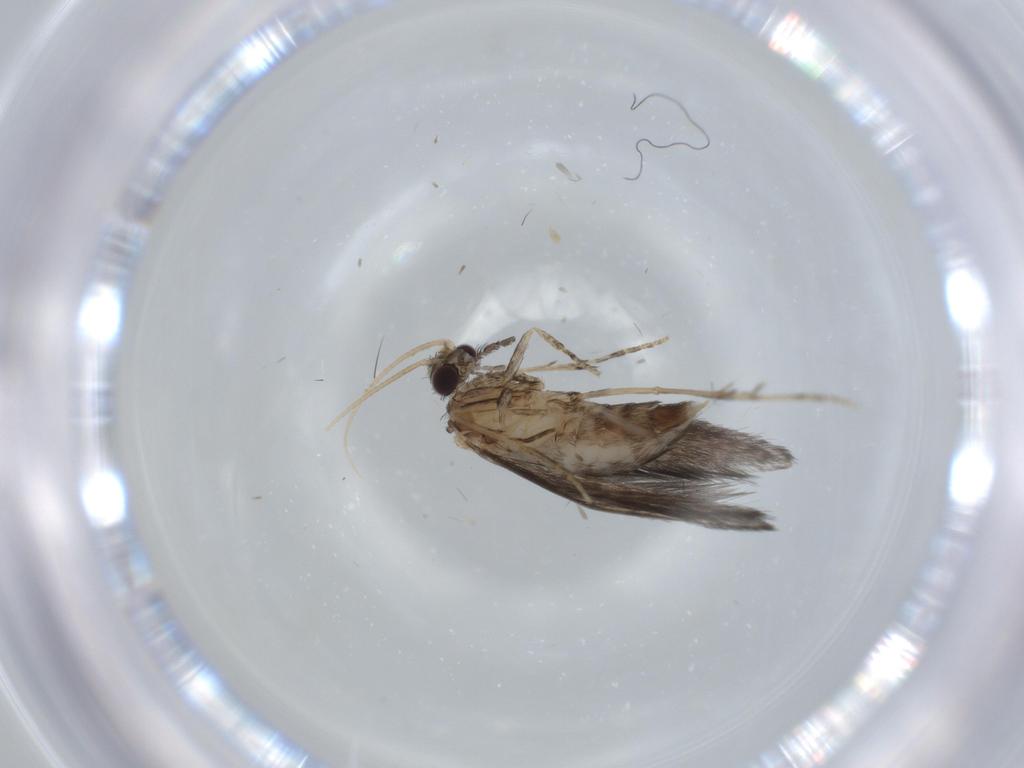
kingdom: Animalia
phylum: Arthropoda
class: Insecta
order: Trichoptera
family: Hydroptilidae
